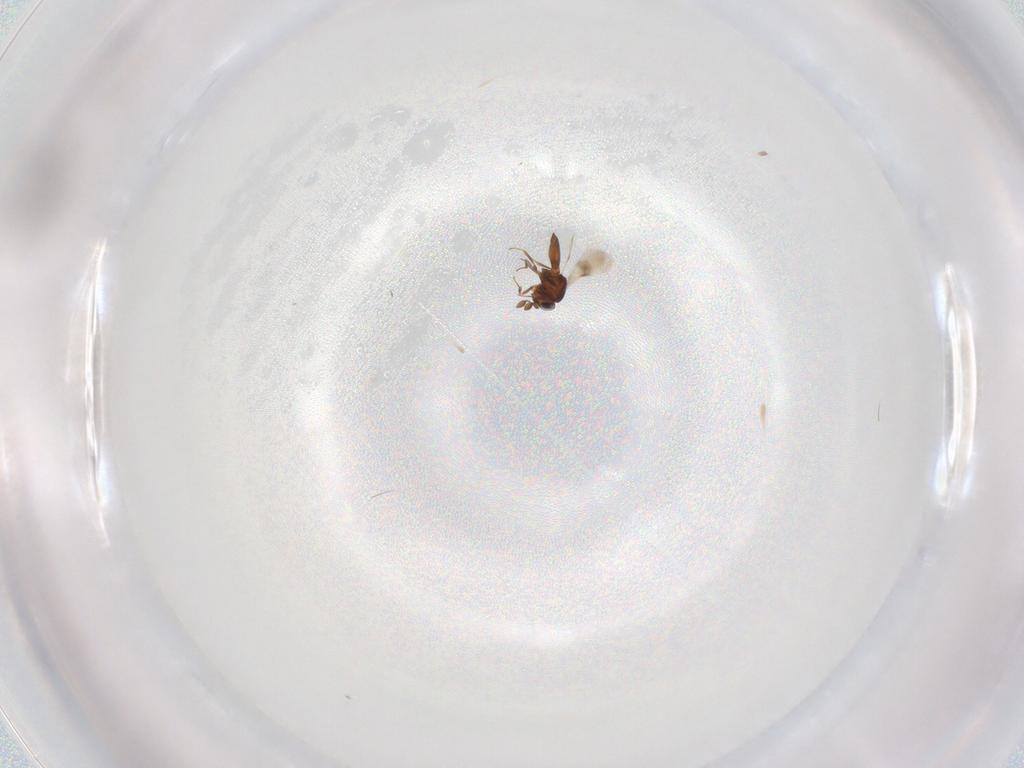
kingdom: Animalia
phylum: Arthropoda
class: Insecta
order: Hymenoptera
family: Scelionidae
